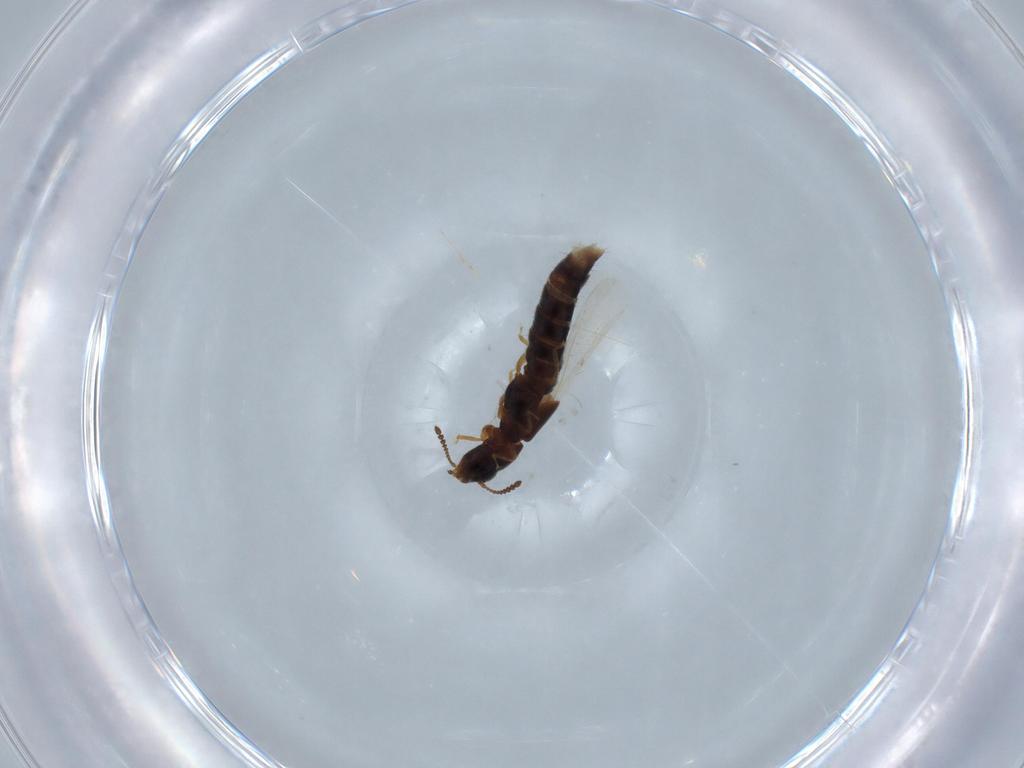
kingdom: Animalia
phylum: Arthropoda
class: Insecta
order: Coleoptera
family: Staphylinidae
